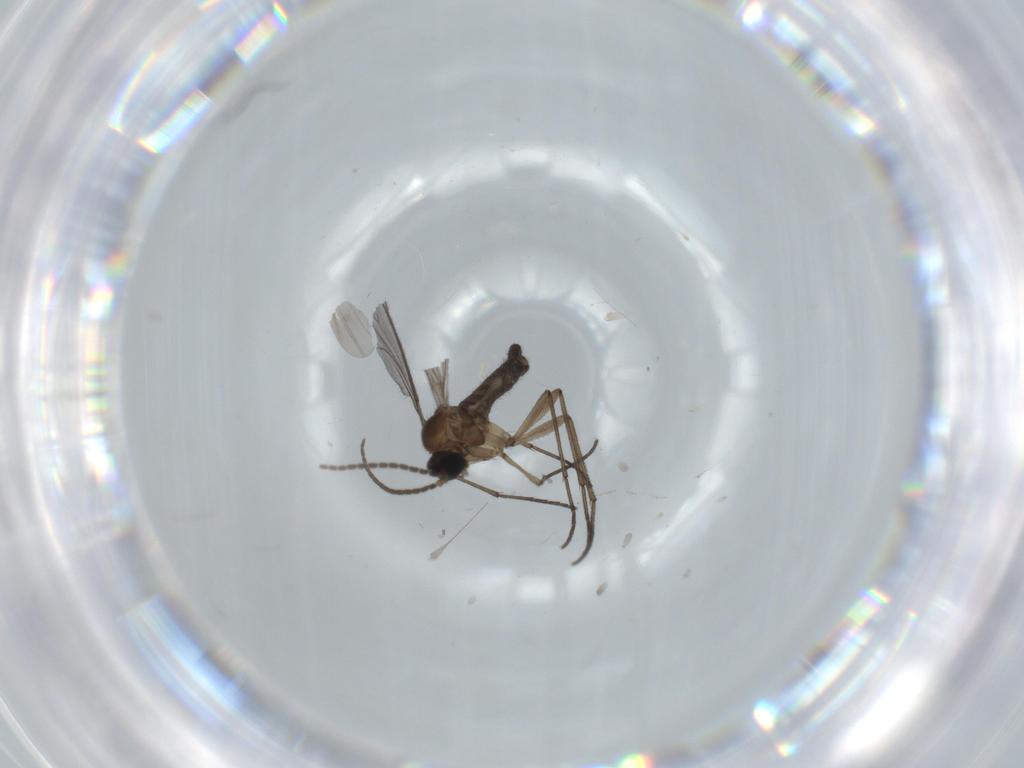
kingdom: Animalia
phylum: Arthropoda
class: Insecta
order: Diptera
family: Sciaridae
